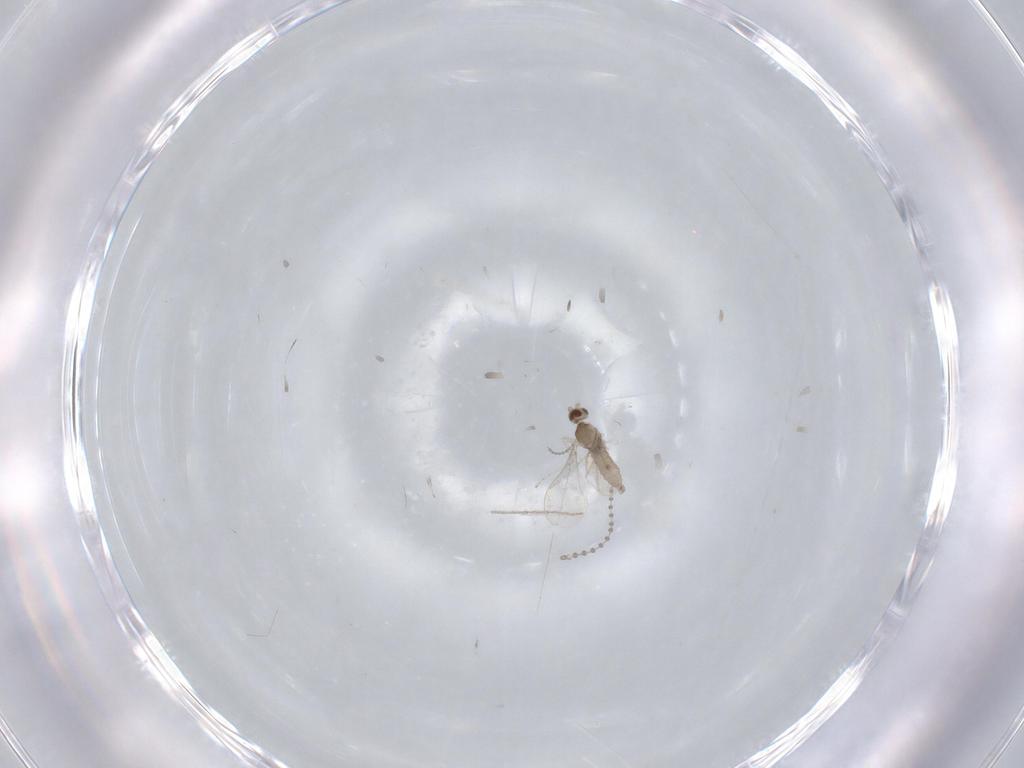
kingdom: Animalia
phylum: Arthropoda
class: Insecta
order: Diptera
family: Cecidomyiidae
